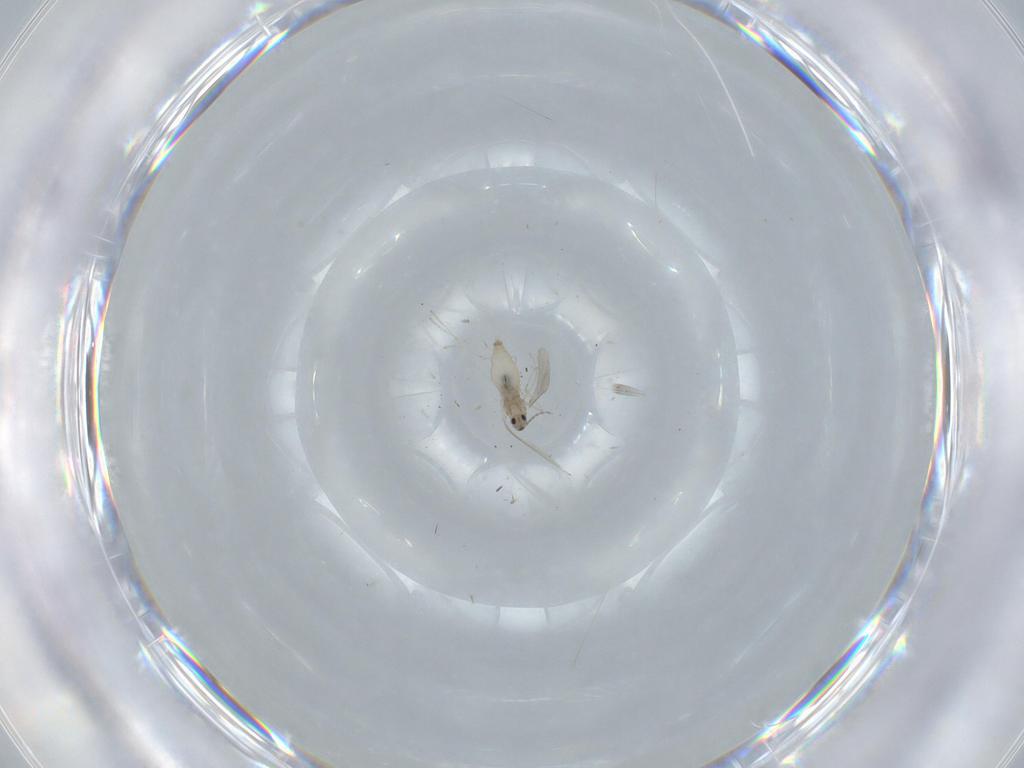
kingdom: Animalia
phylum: Arthropoda
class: Insecta
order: Diptera
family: Cecidomyiidae
